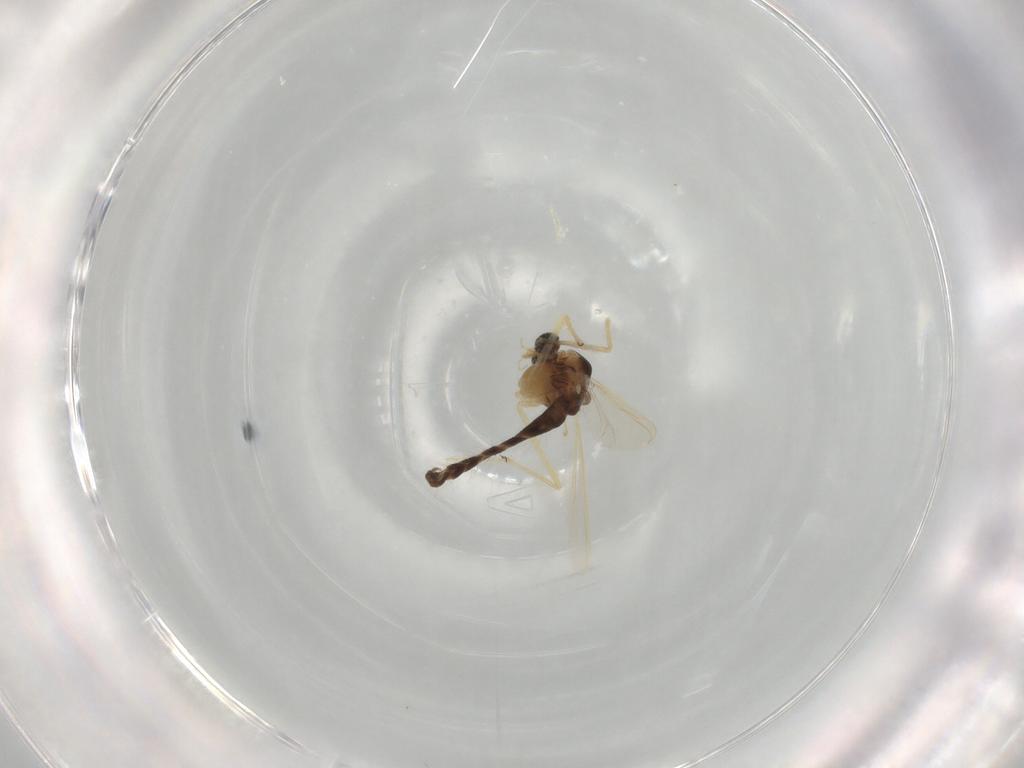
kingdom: Animalia
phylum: Arthropoda
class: Insecta
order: Diptera
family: Chironomidae
